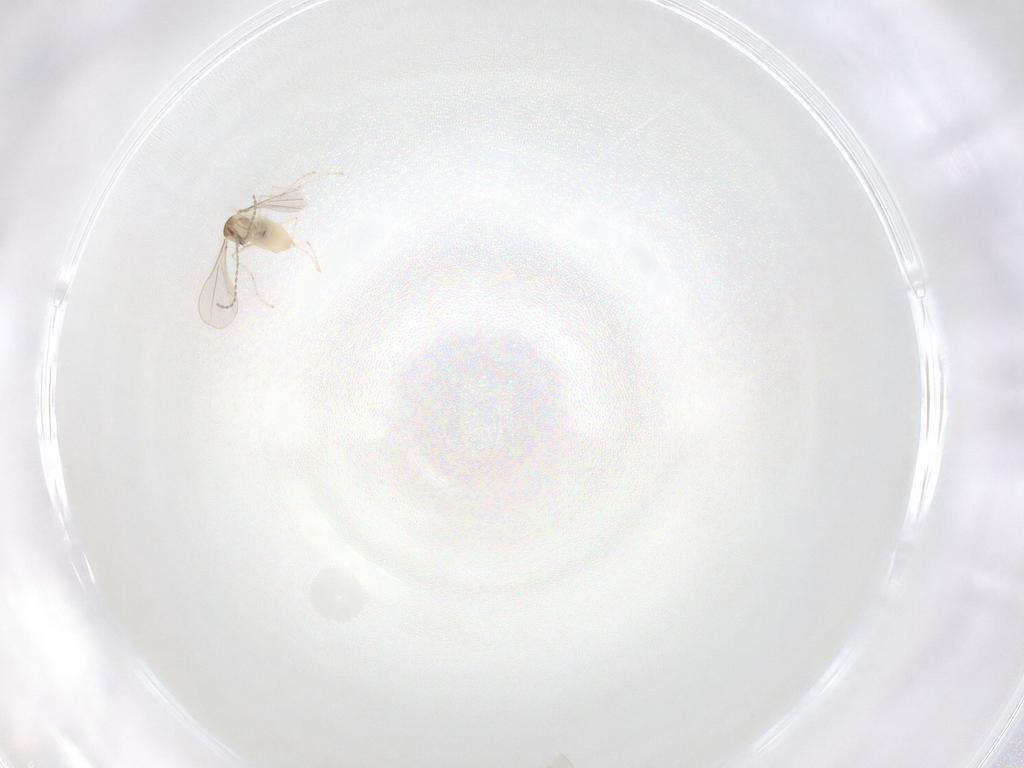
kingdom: Animalia
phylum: Arthropoda
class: Insecta
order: Diptera
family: Cecidomyiidae
